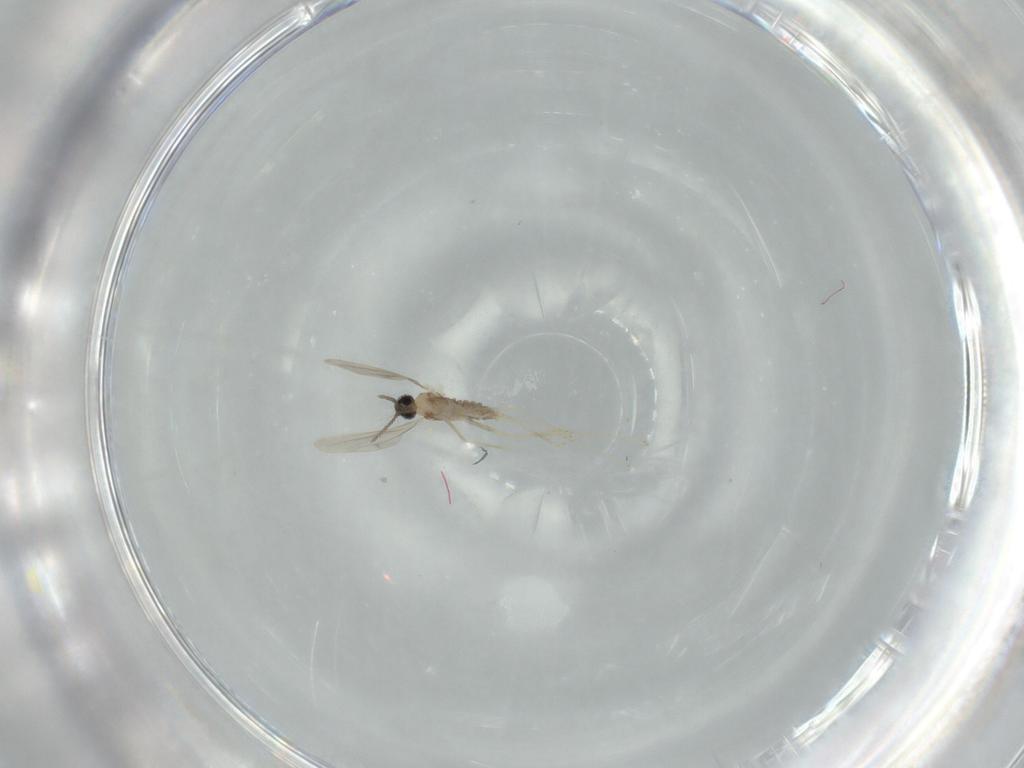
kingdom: Animalia
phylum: Arthropoda
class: Insecta
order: Diptera
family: Cecidomyiidae
